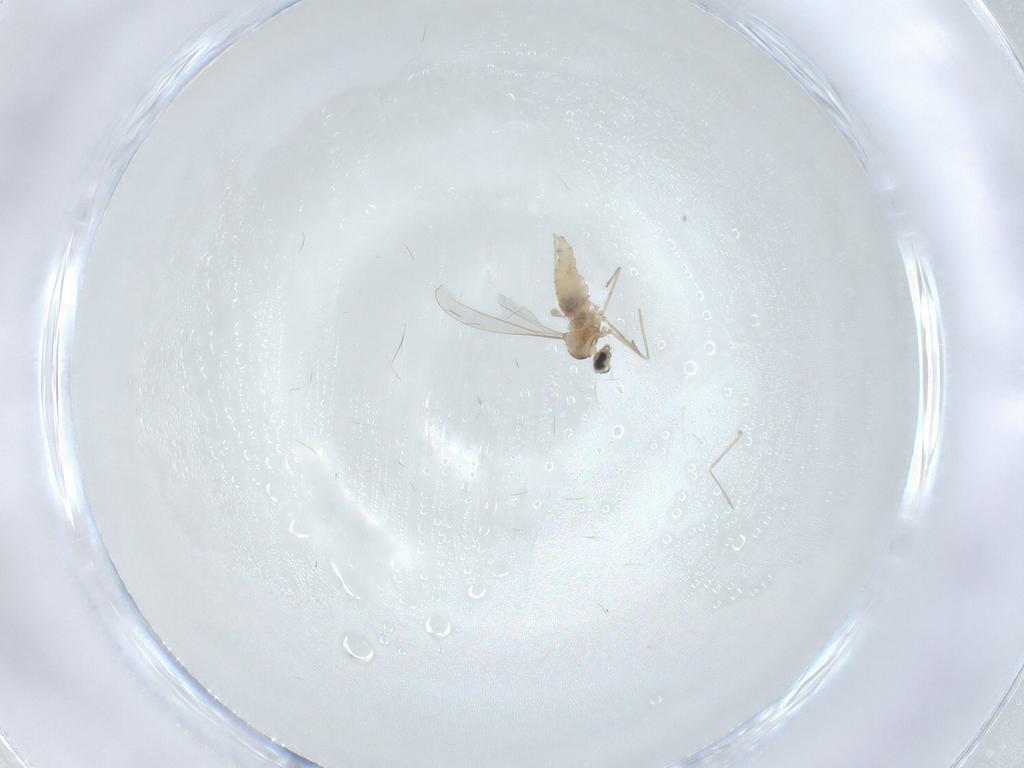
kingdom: Animalia
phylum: Arthropoda
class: Insecta
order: Diptera
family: Cecidomyiidae
